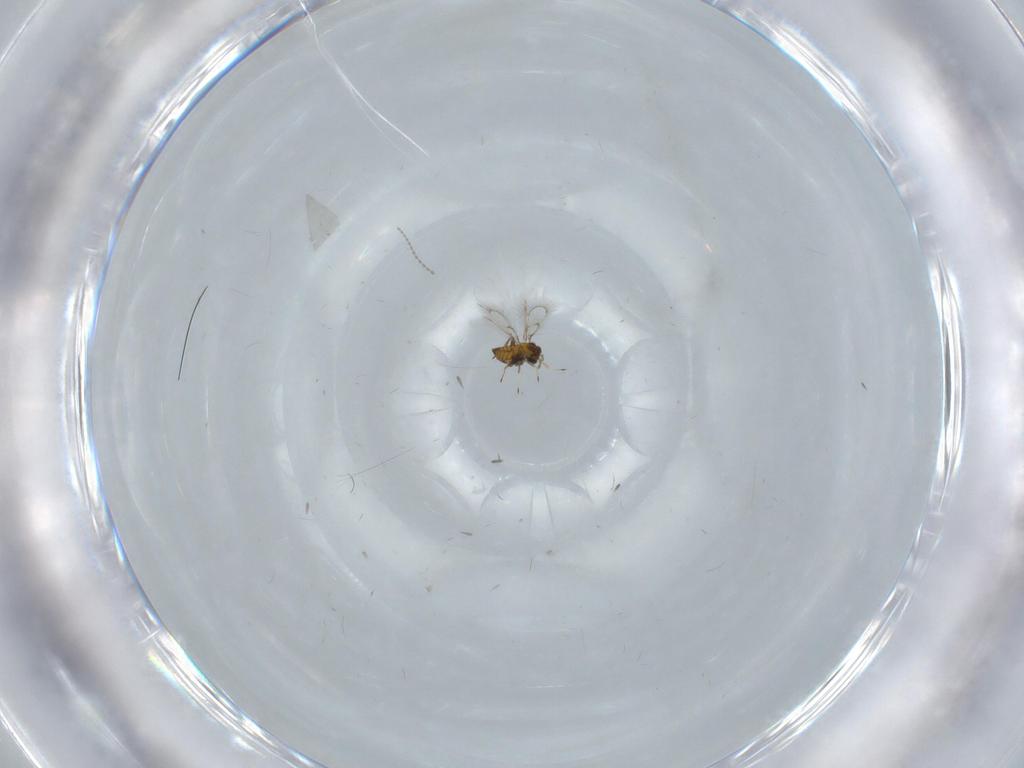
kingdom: Animalia
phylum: Arthropoda
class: Insecta
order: Hymenoptera
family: Trichogrammatidae
